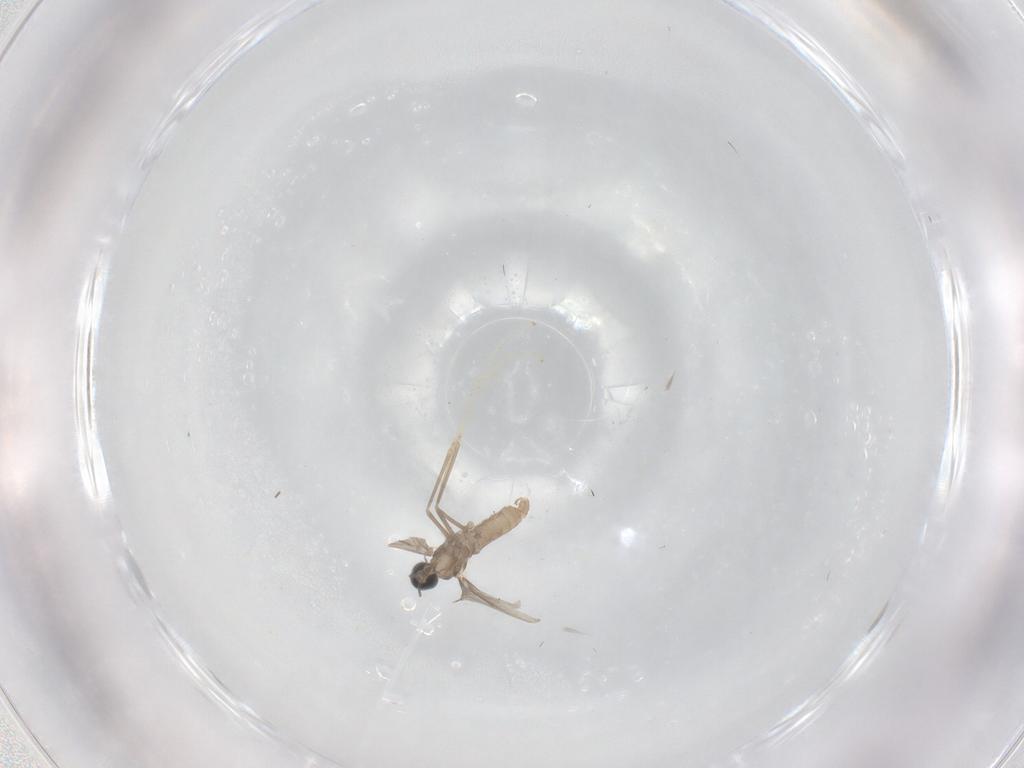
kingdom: Animalia
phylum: Arthropoda
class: Insecta
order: Diptera
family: Cecidomyiidae
